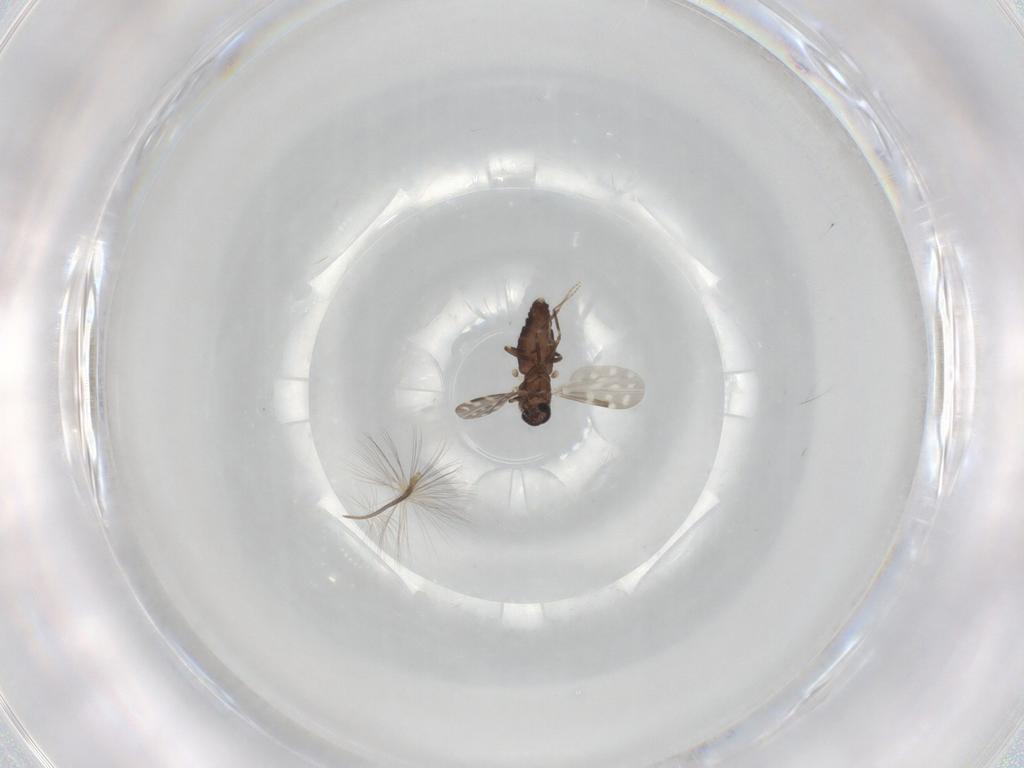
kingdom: Animalia
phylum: Arthropoda
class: Insecta
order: Diptera
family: Chironomidae
